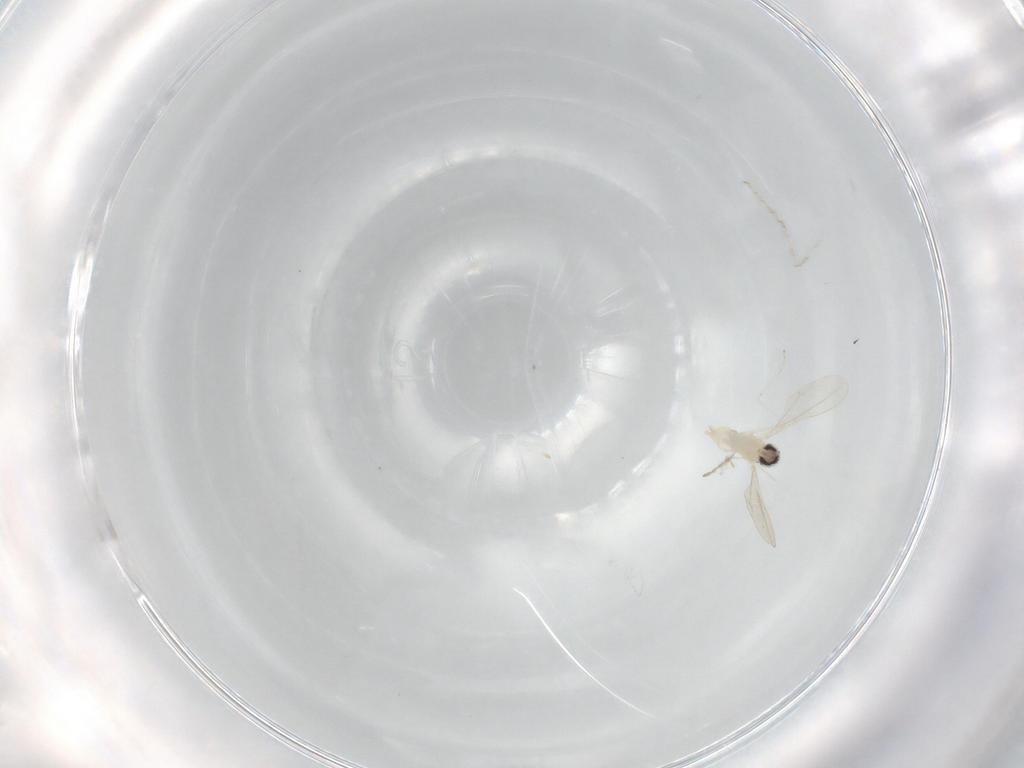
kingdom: Animalia
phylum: Arthropoda
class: Insecta
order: Diptera
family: Cecidomyiidae
